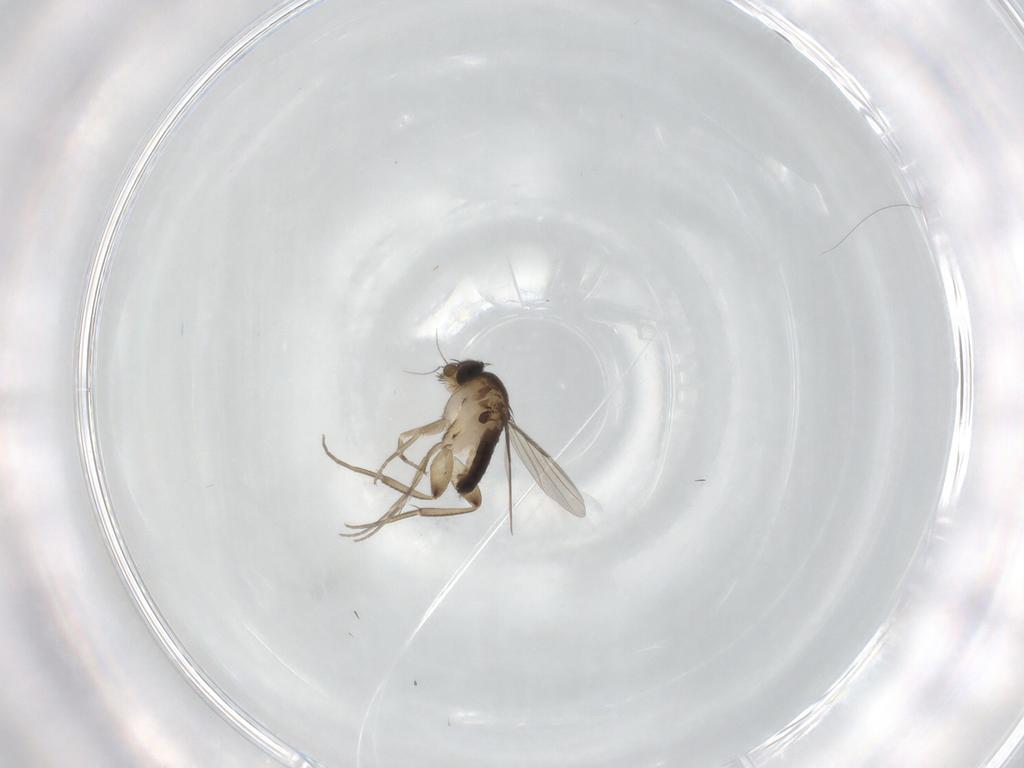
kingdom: Animalia
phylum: Arthropoda
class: Insecta
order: Diptera
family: Phoridae
